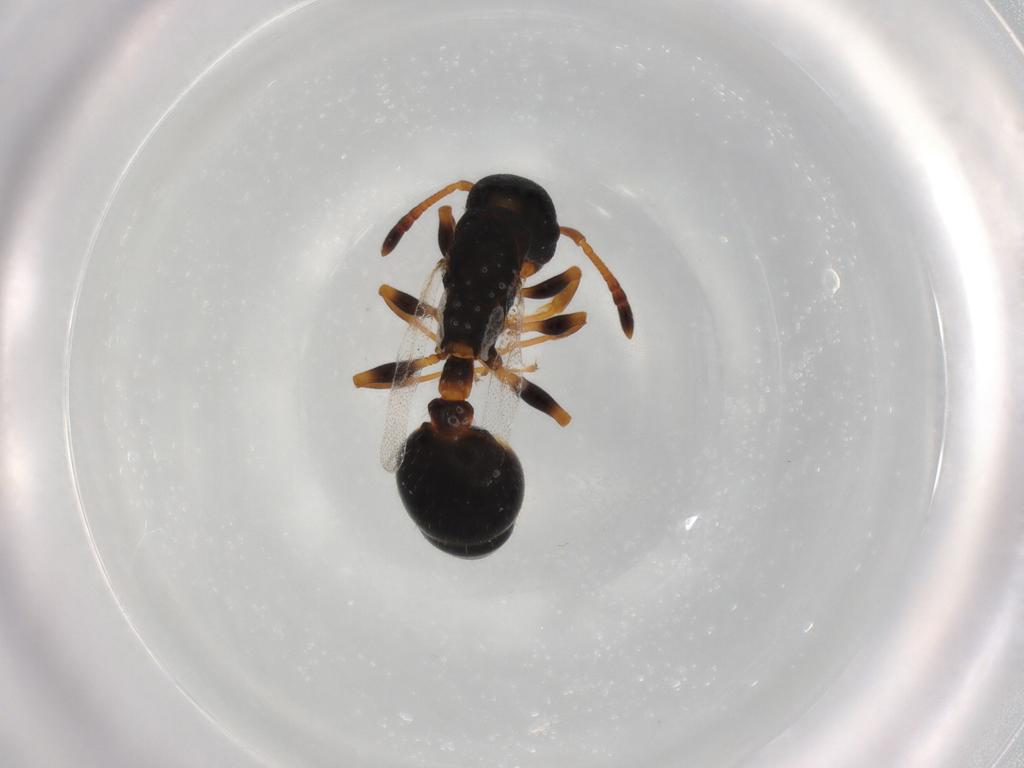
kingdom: Animalia
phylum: Arthropoda
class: Insecta
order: Hymenoptera
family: Formicidae
